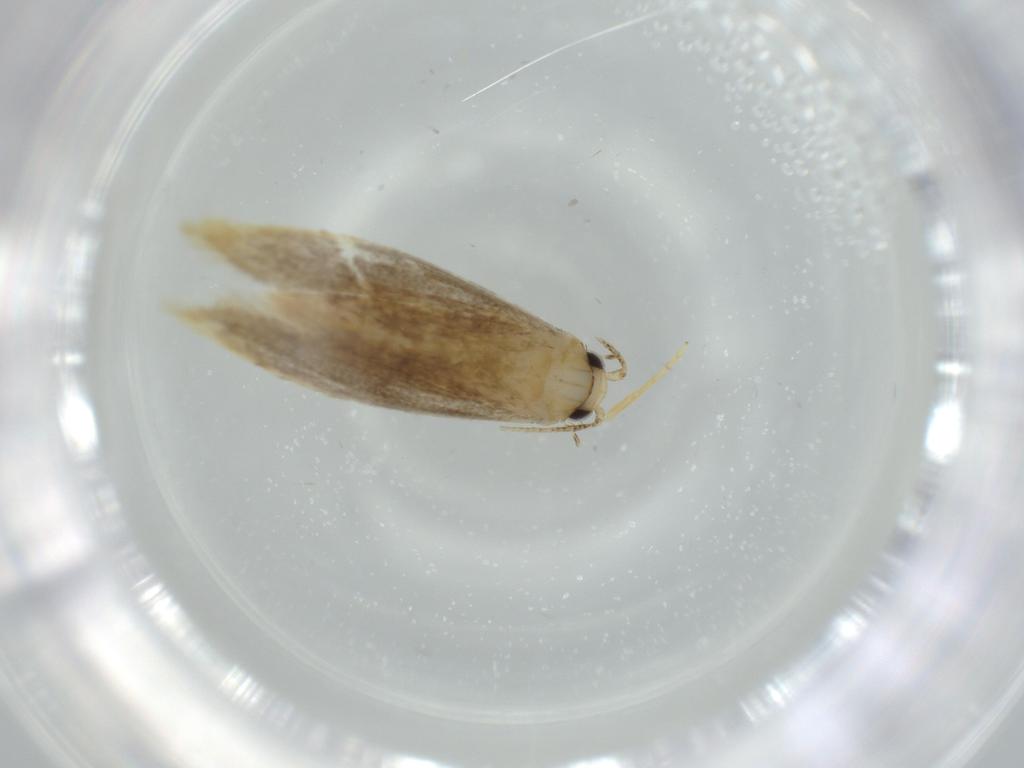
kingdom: Animalia
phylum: Arthropoda
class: Insecta
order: Lepidoptera
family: Tineidae
